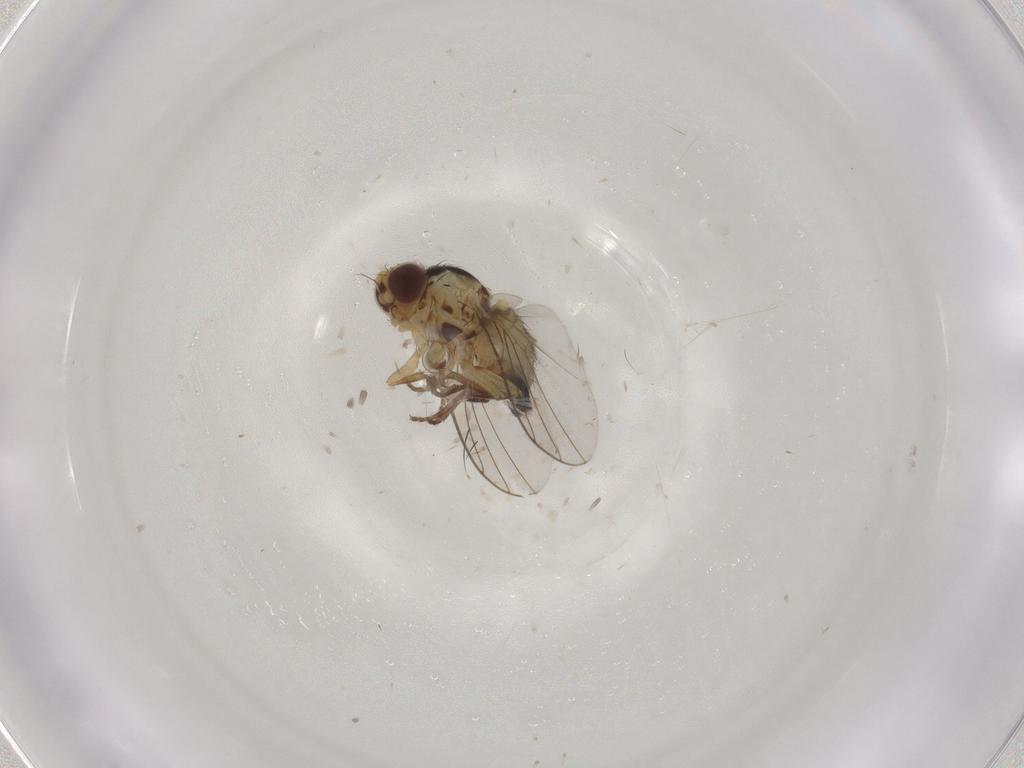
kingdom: Animalia
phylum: Arthropoda
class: Insecta
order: Diptera
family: Agromyzidae
